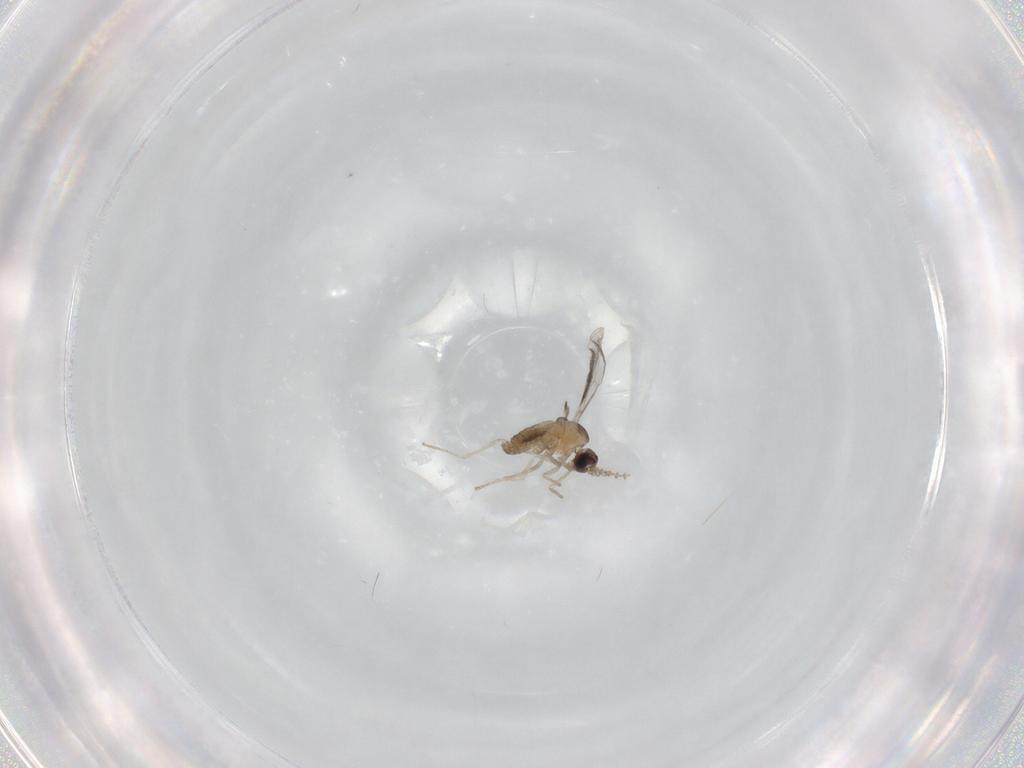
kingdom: Animalia
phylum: Arthropoda
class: Insecta
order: Diptera
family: Cecidomyiidae
